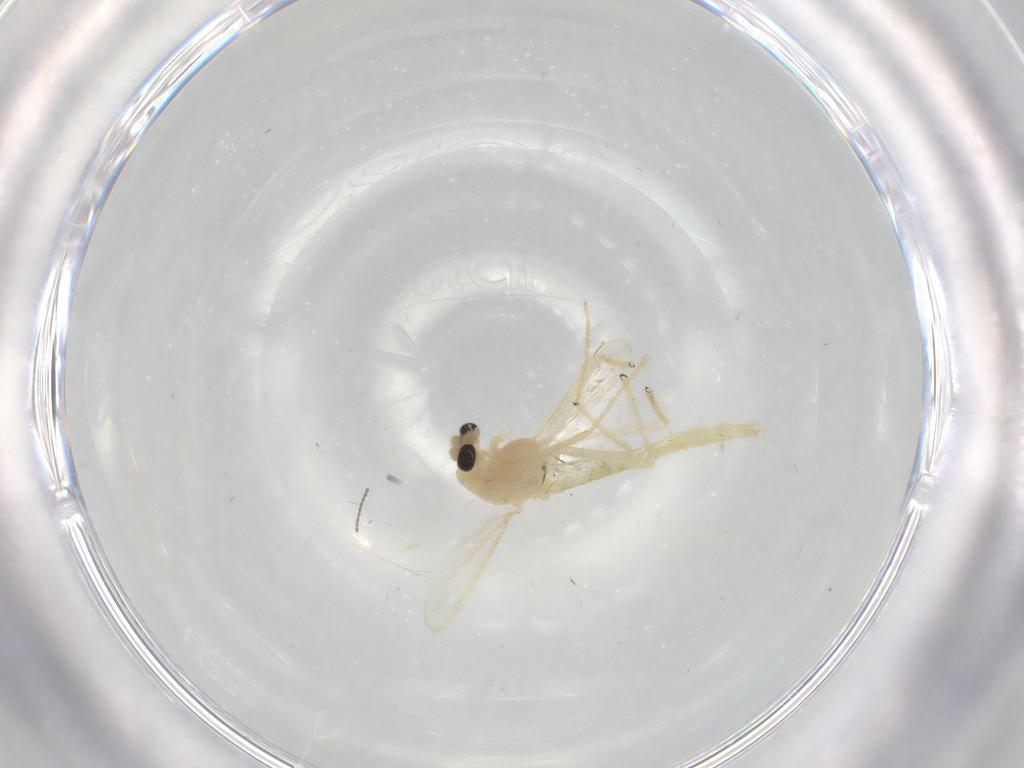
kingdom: Animalia
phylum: Arthropoda
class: Insecta
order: Diptera
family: Chironomidae
